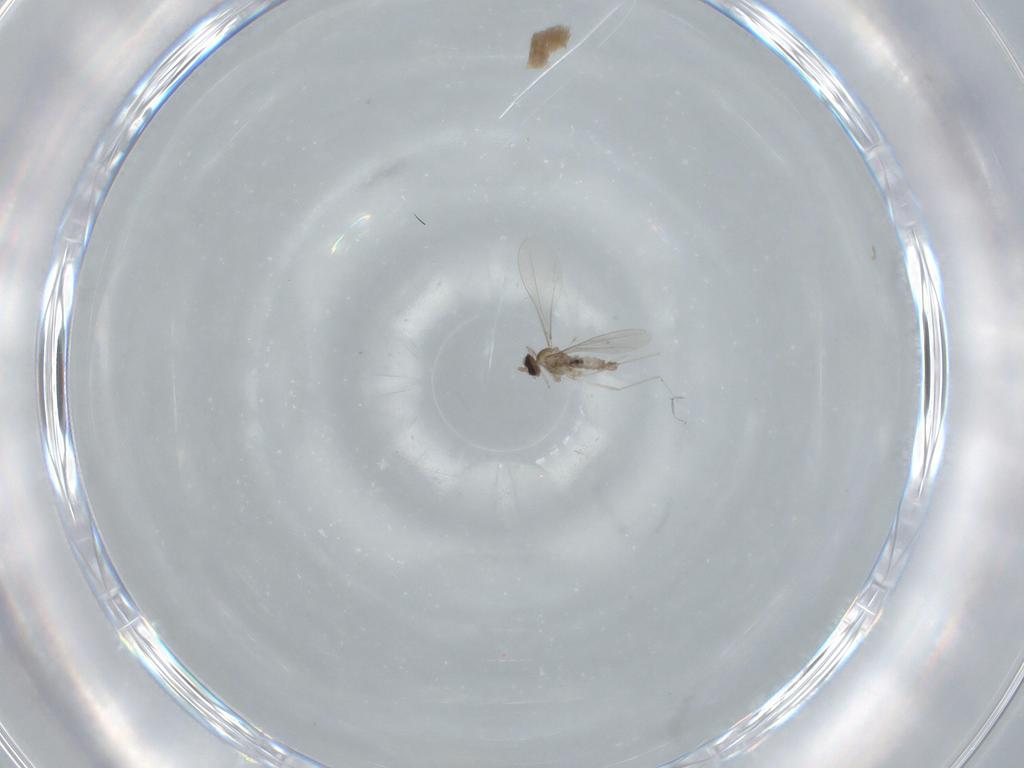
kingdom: Animalia
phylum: Arthropoda
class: Insecta
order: Diptera
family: Cecidomyiidae
